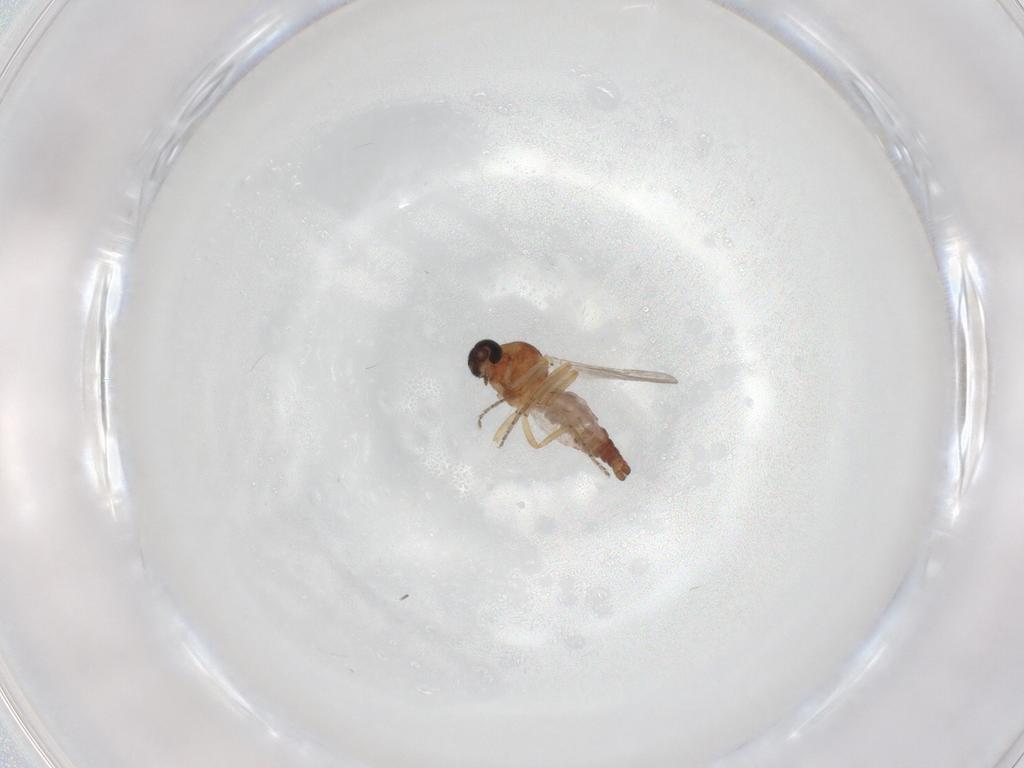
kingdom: Animalia
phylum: Arthropoda
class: Insecta
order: Diptera
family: Ceratopogonidae
